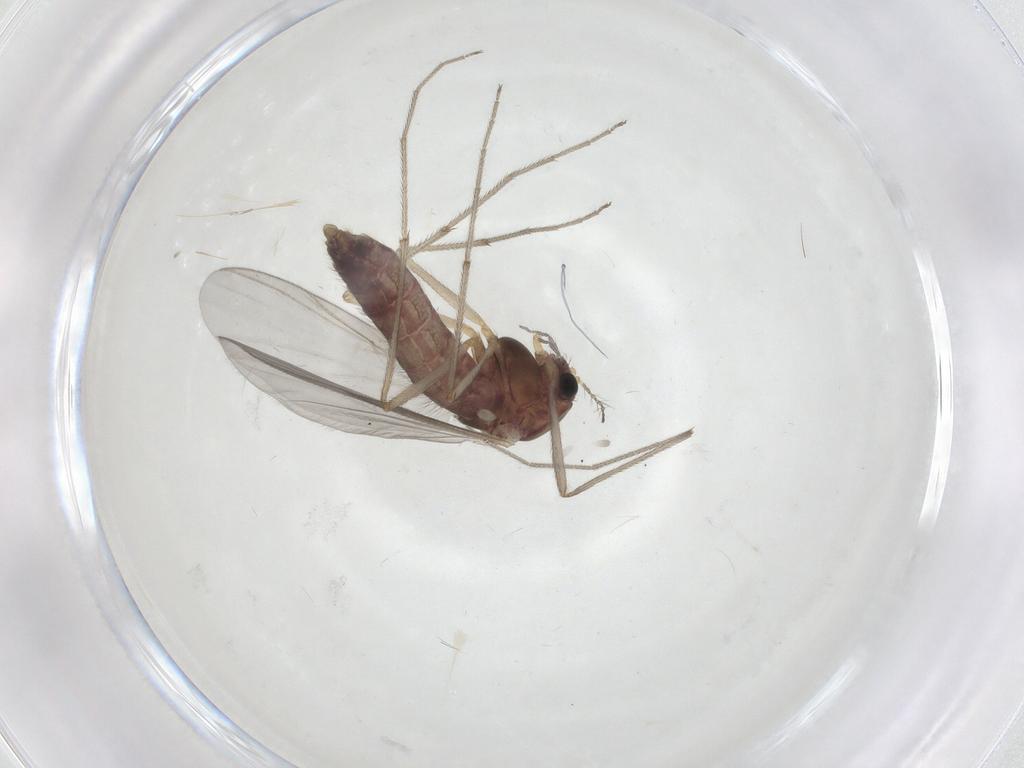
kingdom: Animalia
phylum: Arthropoda
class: Insecta
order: Diptera
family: Chironomidae
